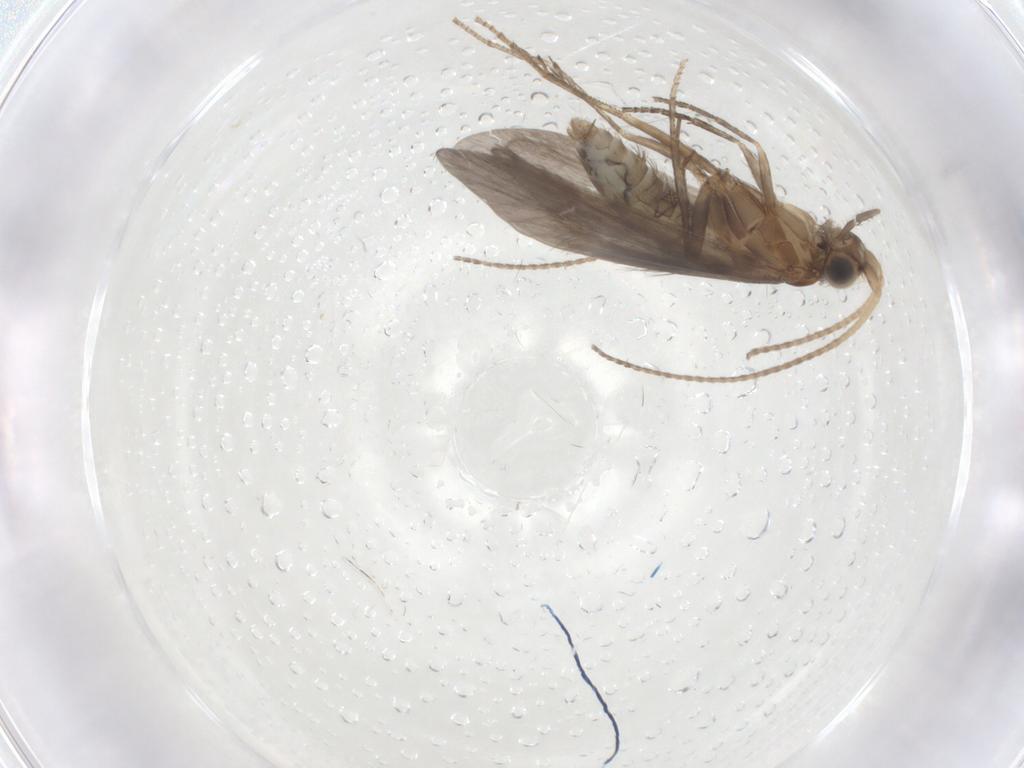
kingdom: Animalia
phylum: Arthropoda
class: Insecta
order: Trichoptera
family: Helicopsychidae
